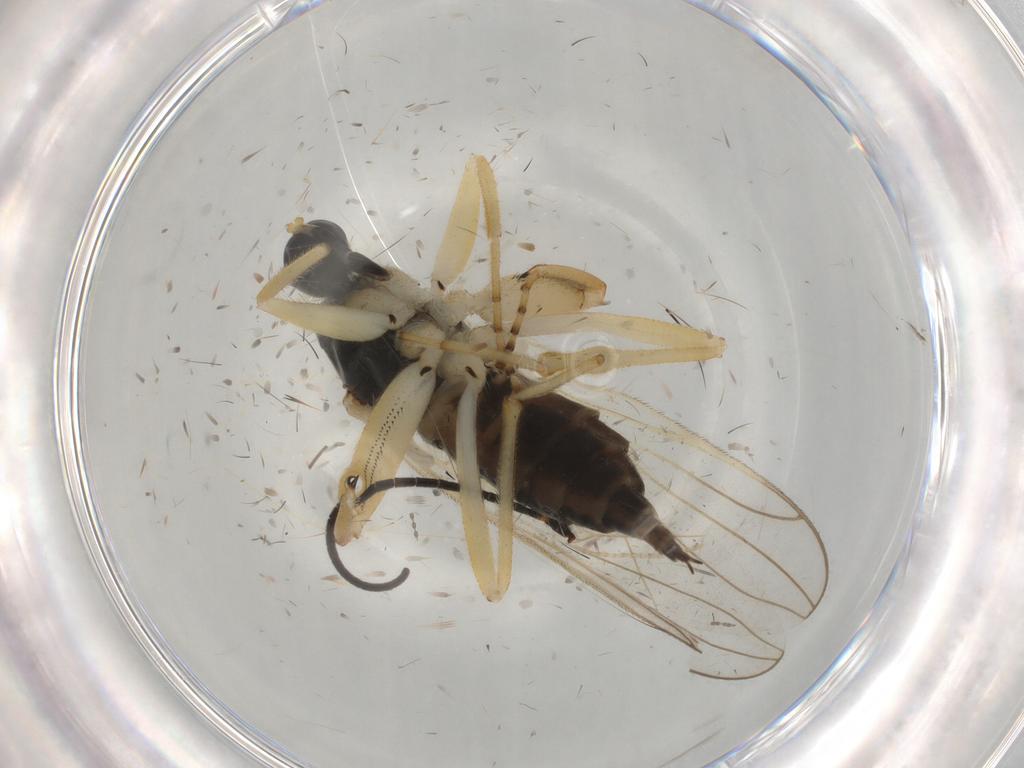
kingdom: Animalia
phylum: Arthropoda
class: Insecta
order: Diptera
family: Hybotidae
